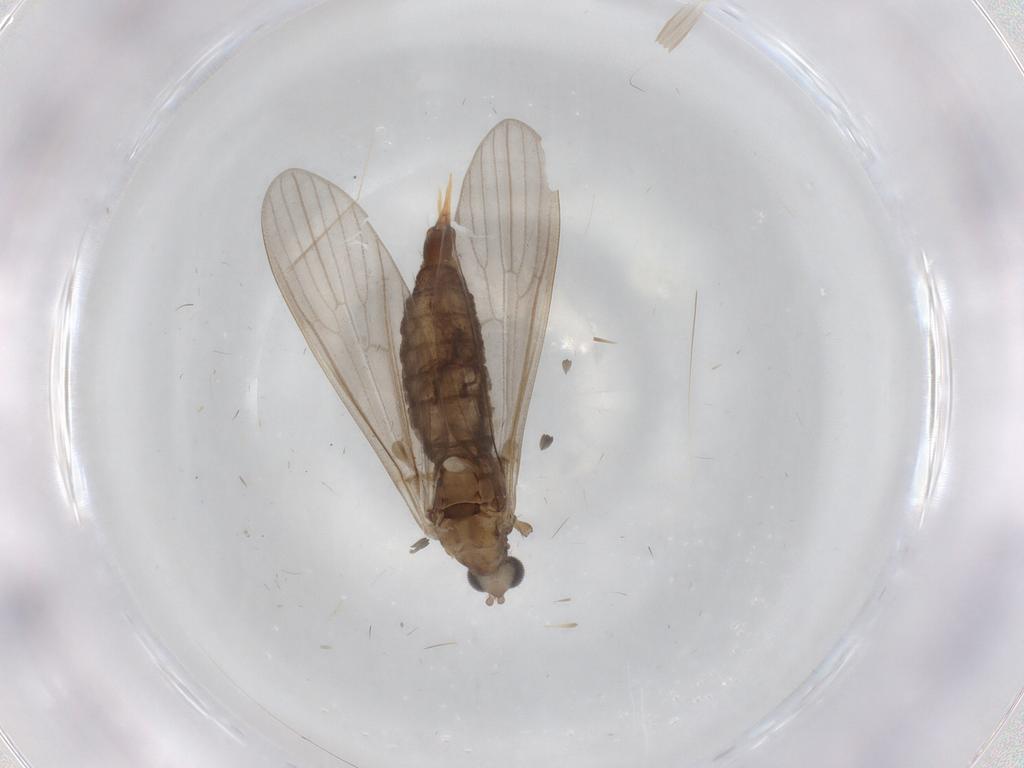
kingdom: Animalia
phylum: Arthropoda
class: Insecta
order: Diptera
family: Limoniidae
